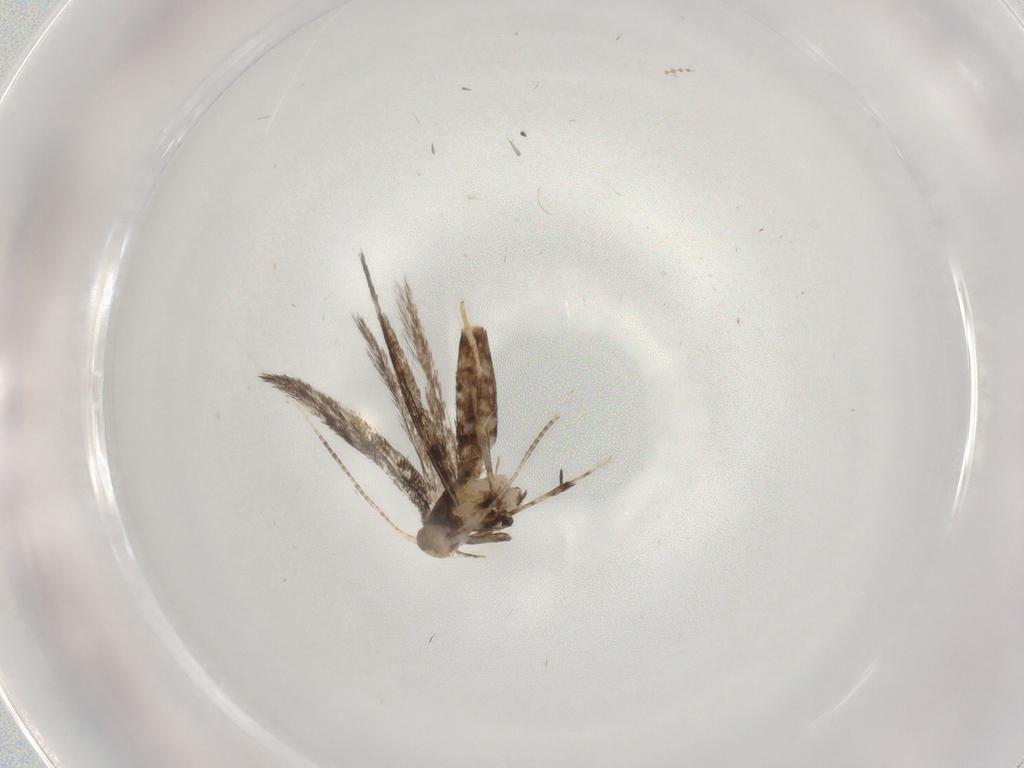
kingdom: Animalia
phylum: Arthropoda
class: Insecta
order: Lepidoptera
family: Gracillariidae
